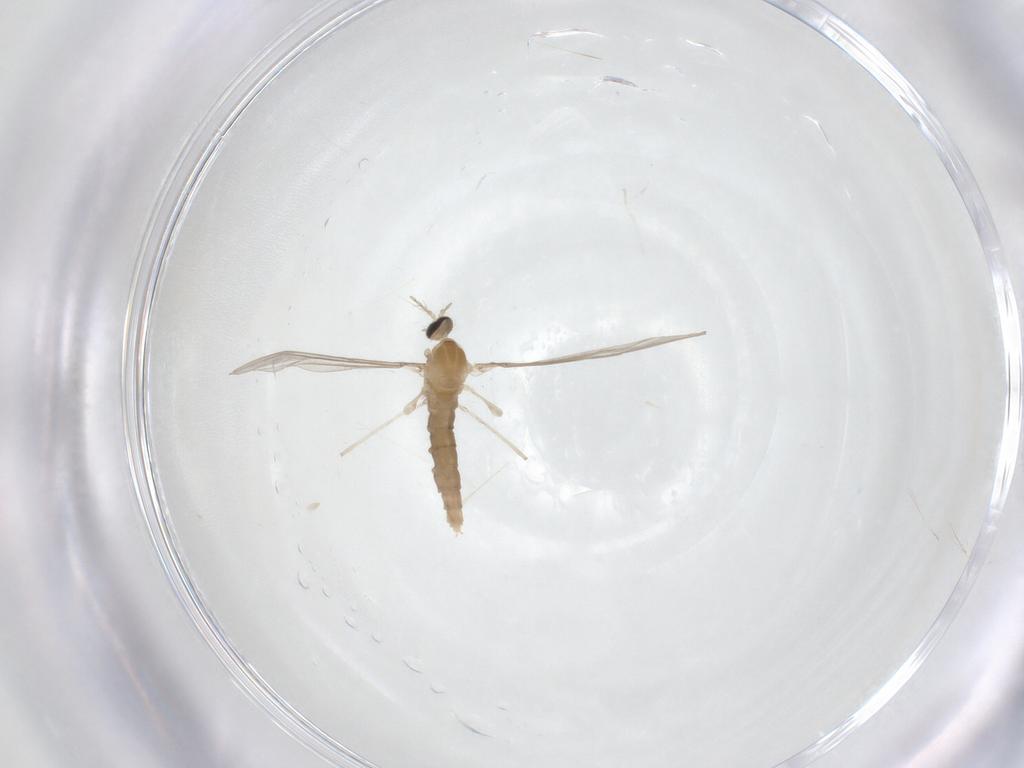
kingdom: Animalia
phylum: Arthropoda
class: Insecta
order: Diptera
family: Cecidomyiidae
